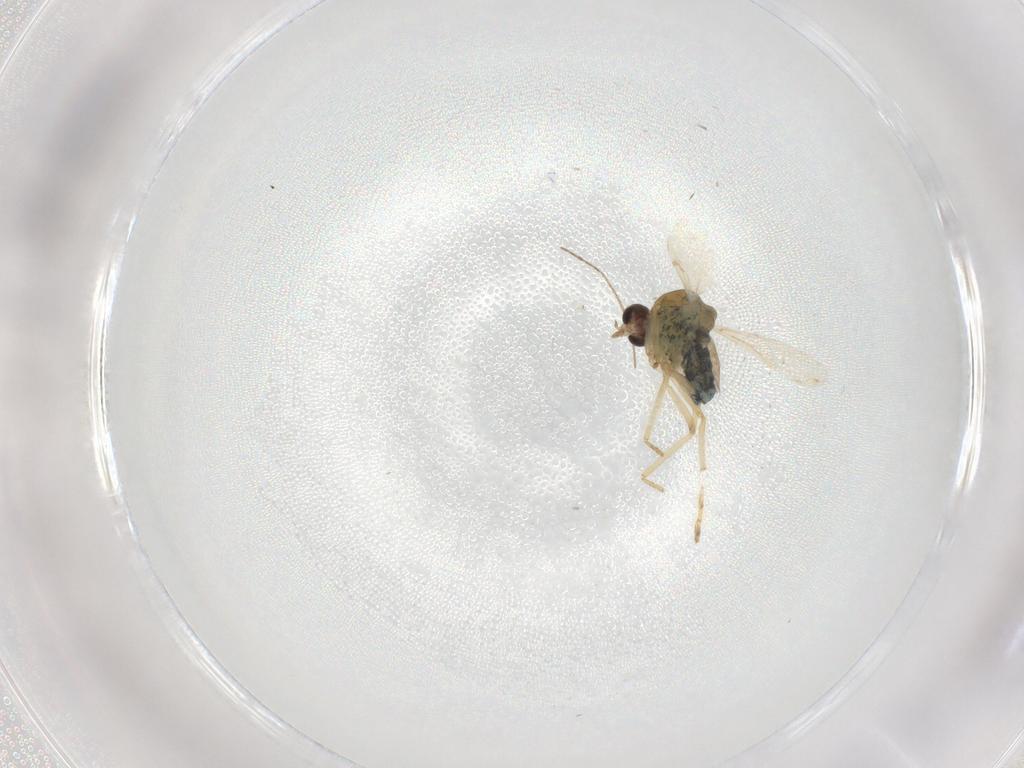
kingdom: Animalia
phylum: Arthropoda
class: Insecta
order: Diptera
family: Psychodidae
